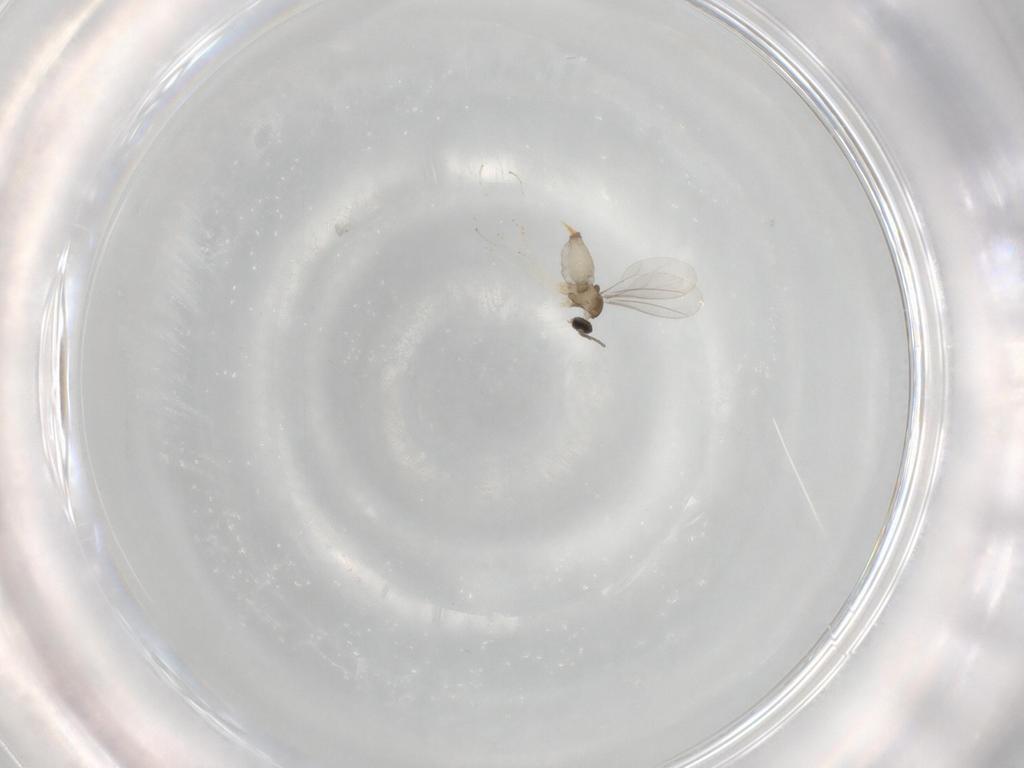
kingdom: Animalia
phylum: Arthropoda
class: Insecta
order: Diptera
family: Cecidomyiidae
